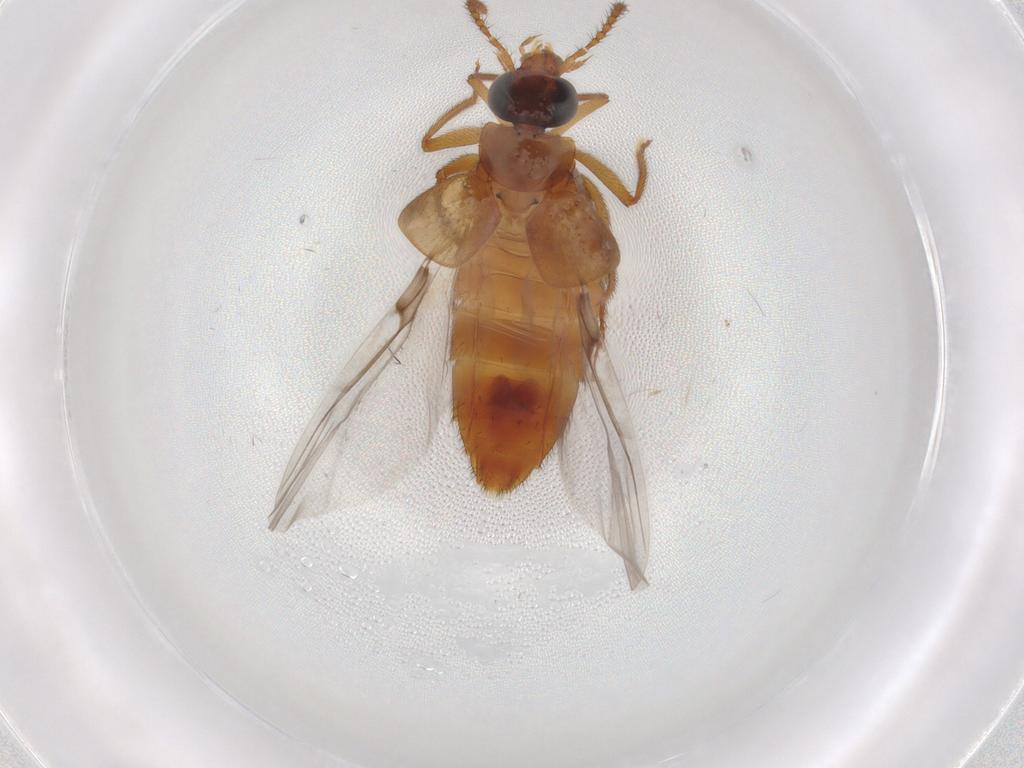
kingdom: Animalia
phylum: Arthropoda
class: Insecta
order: Coleoptera
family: Staphylinidae
